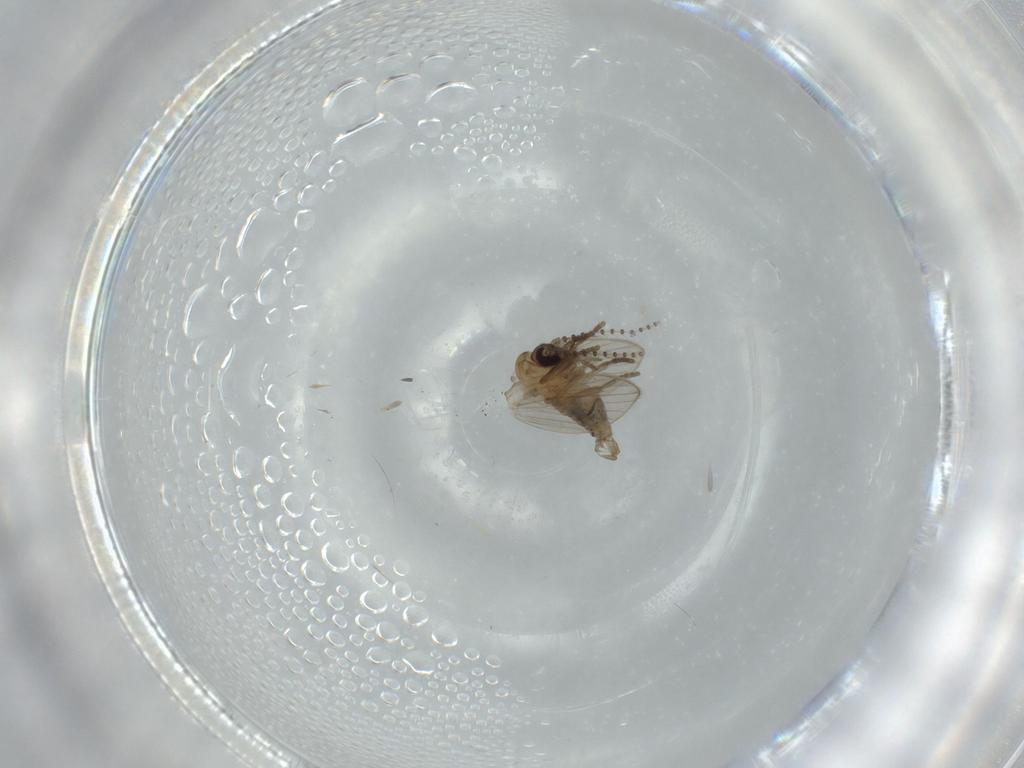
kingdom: Animalia
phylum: Arthropoda
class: Insecta
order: Diptera
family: Psychodidae
